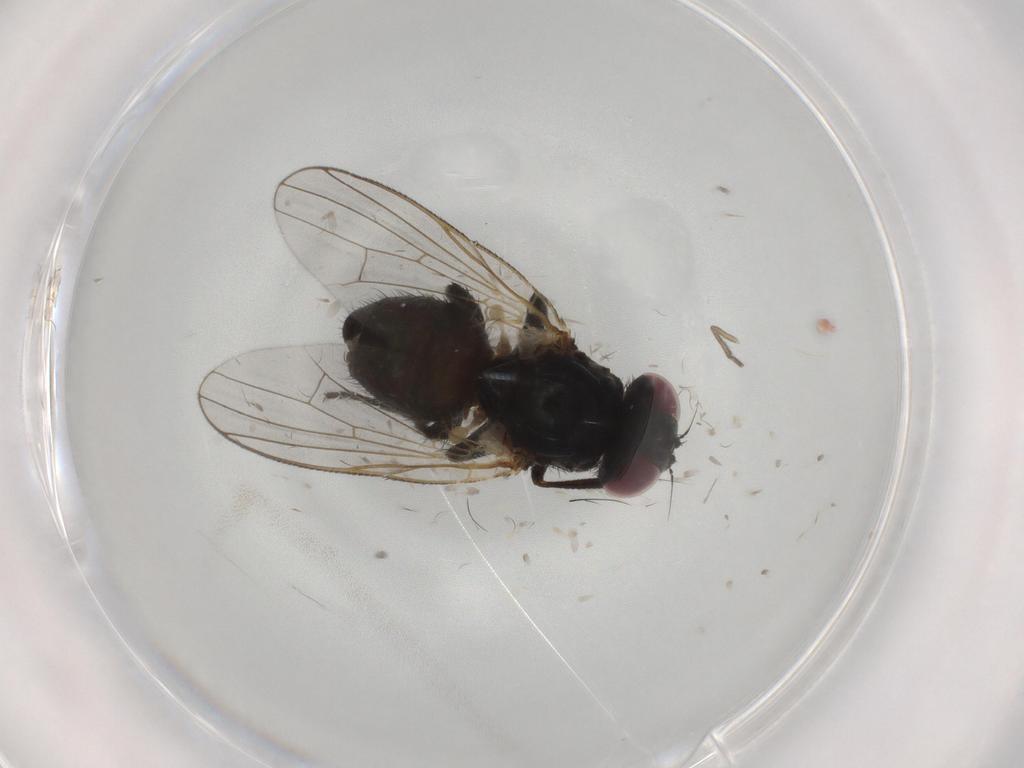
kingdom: Animalia
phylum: Arthropoda
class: Insecta
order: Diptera
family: Fannia
